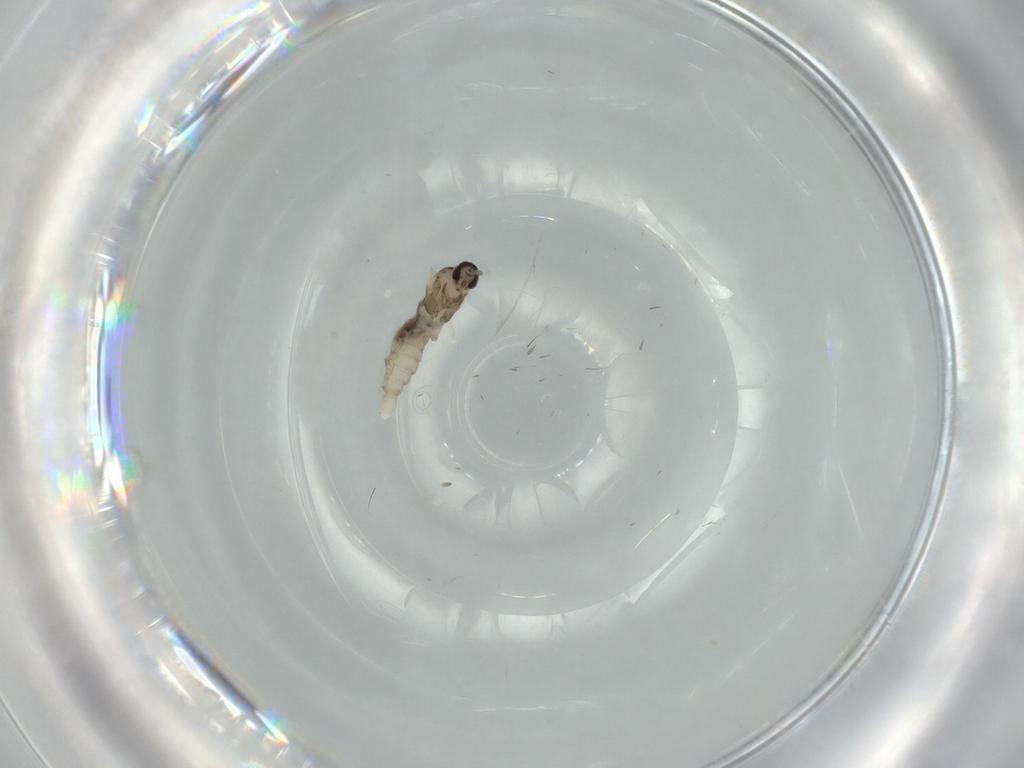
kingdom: Animalia
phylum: Arthropoda
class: Insecta
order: Diptera
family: Cecidomyiidae
